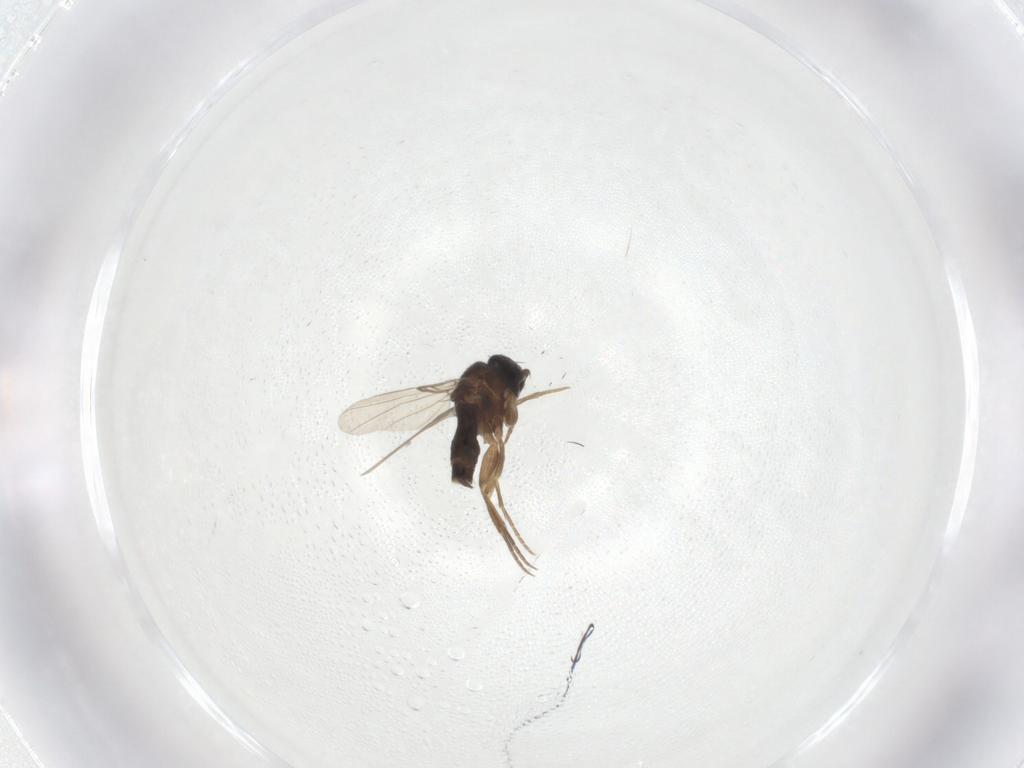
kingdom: Animalia
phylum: Arthropoda
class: Insecta
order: Diptera
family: Phoridae
